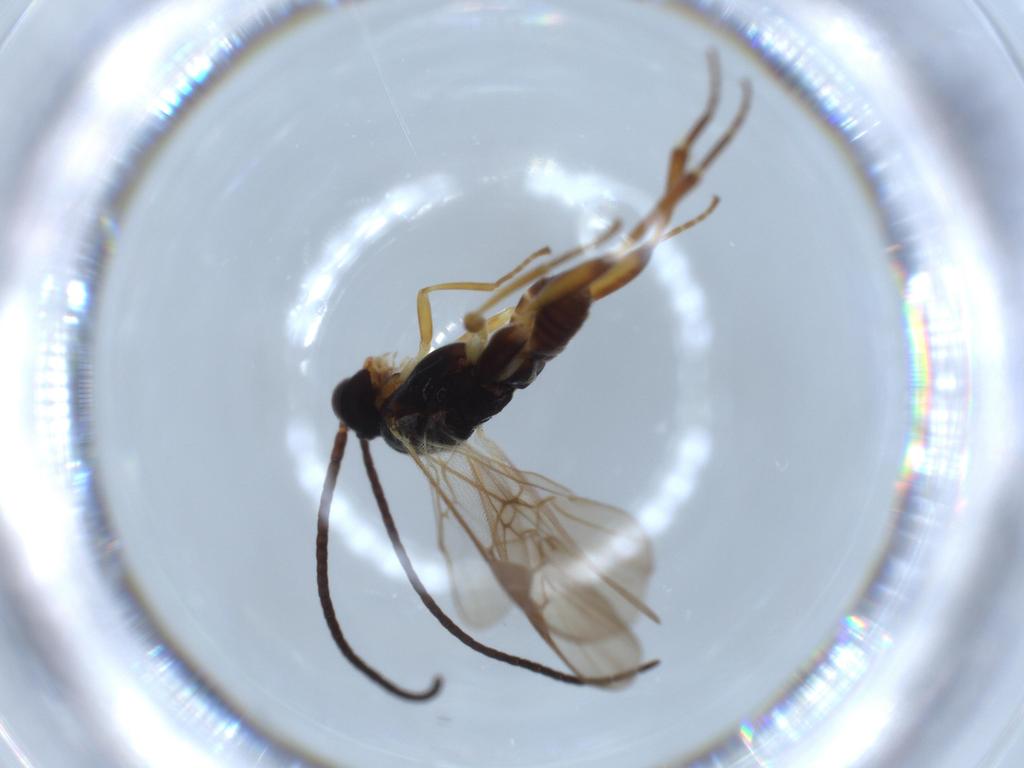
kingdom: Animalia
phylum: Arthropoda
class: Insecta
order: Lepidoptera
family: Tortricidae
